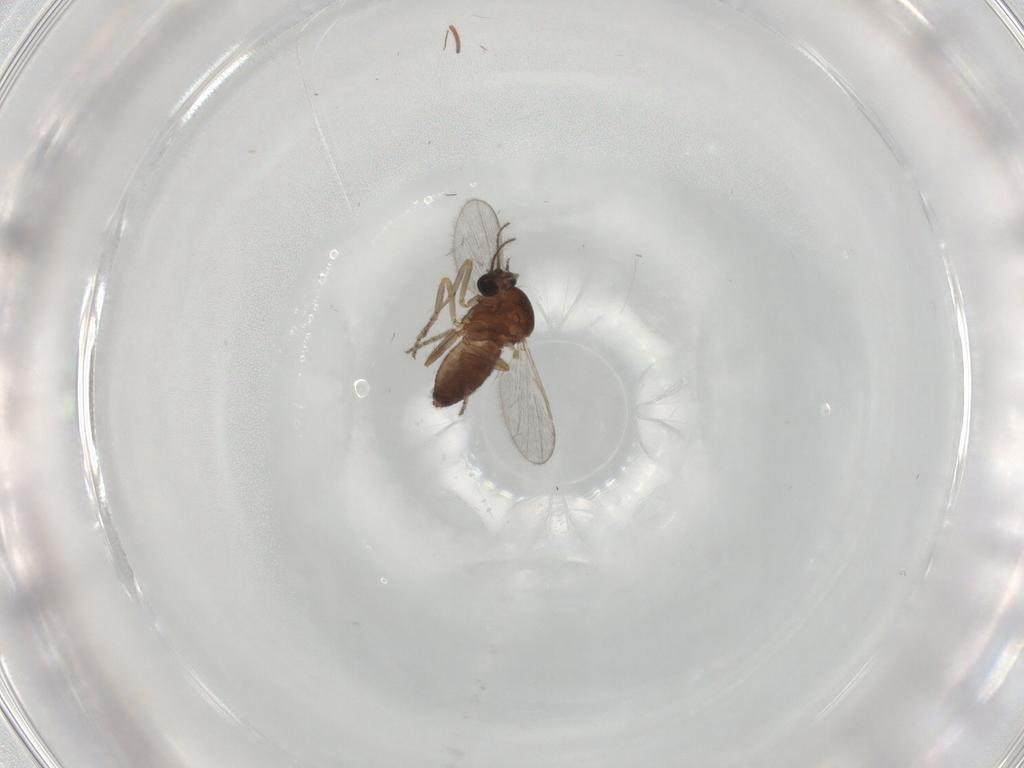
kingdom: Animalia
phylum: Arthropoda
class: Insecta
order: Diptera
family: Ceratopogonidae
